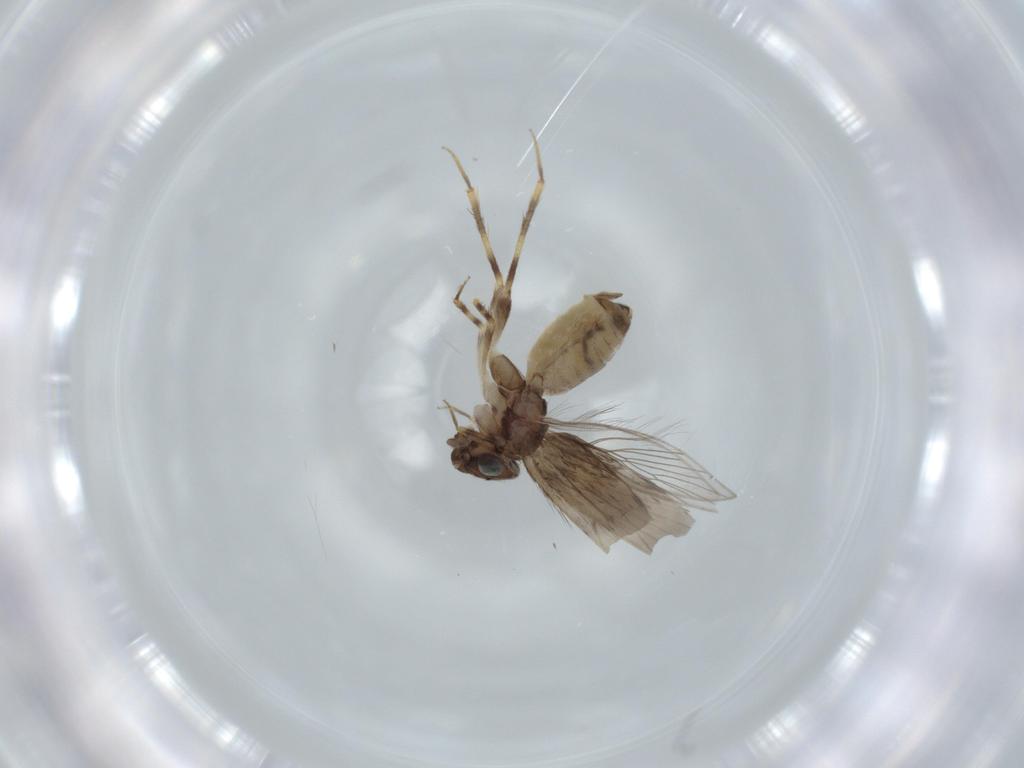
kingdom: Animalia
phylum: Arthropoda
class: Insecta
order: Psocodea
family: Lepidopsocidae
